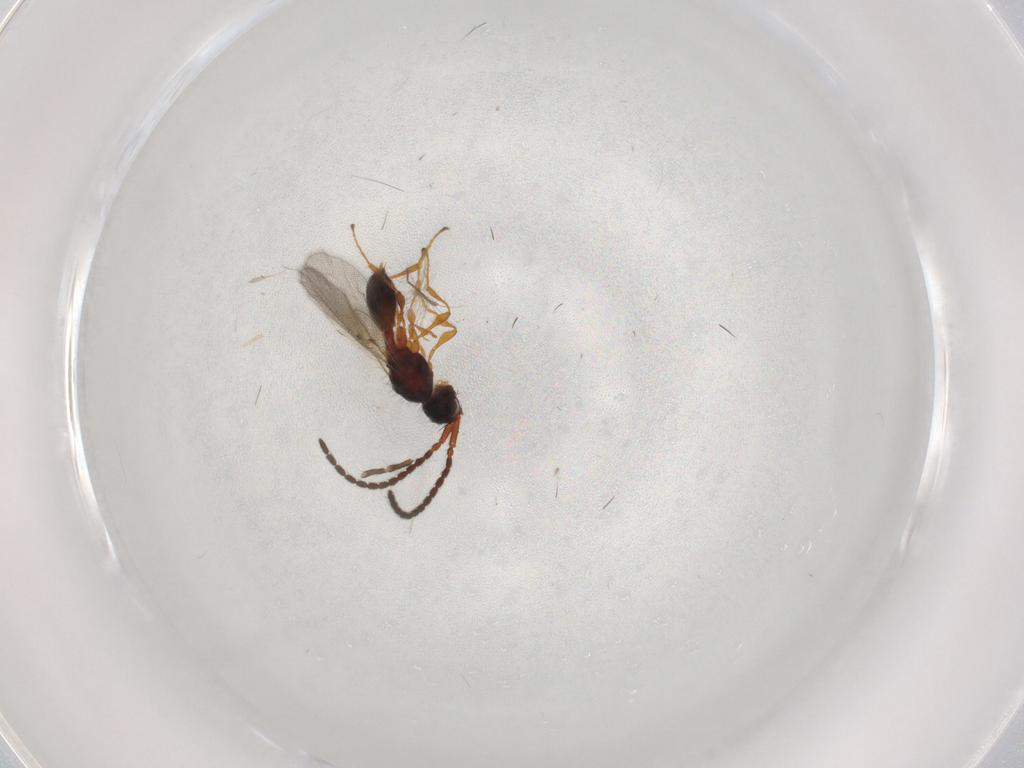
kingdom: Animalia
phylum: Arthropoda
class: Insecta
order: Hymenoptera
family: Diapriidae
